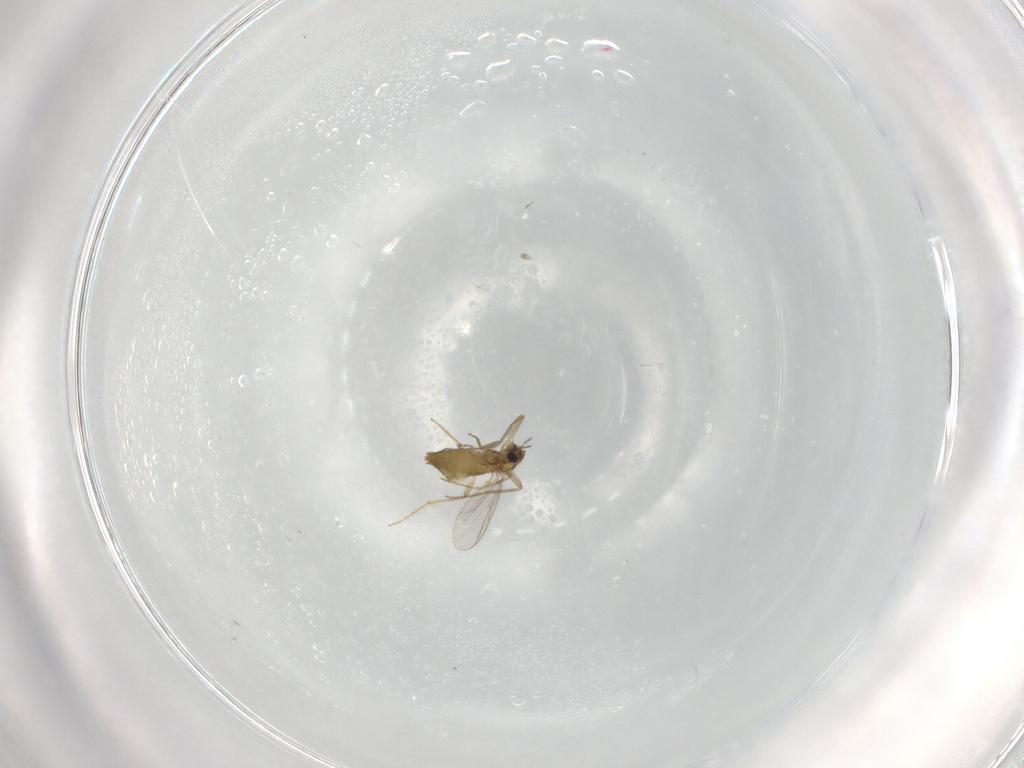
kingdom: Animalia
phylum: Arthropoda
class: Insecta
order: Diptera
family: Chironomidae
